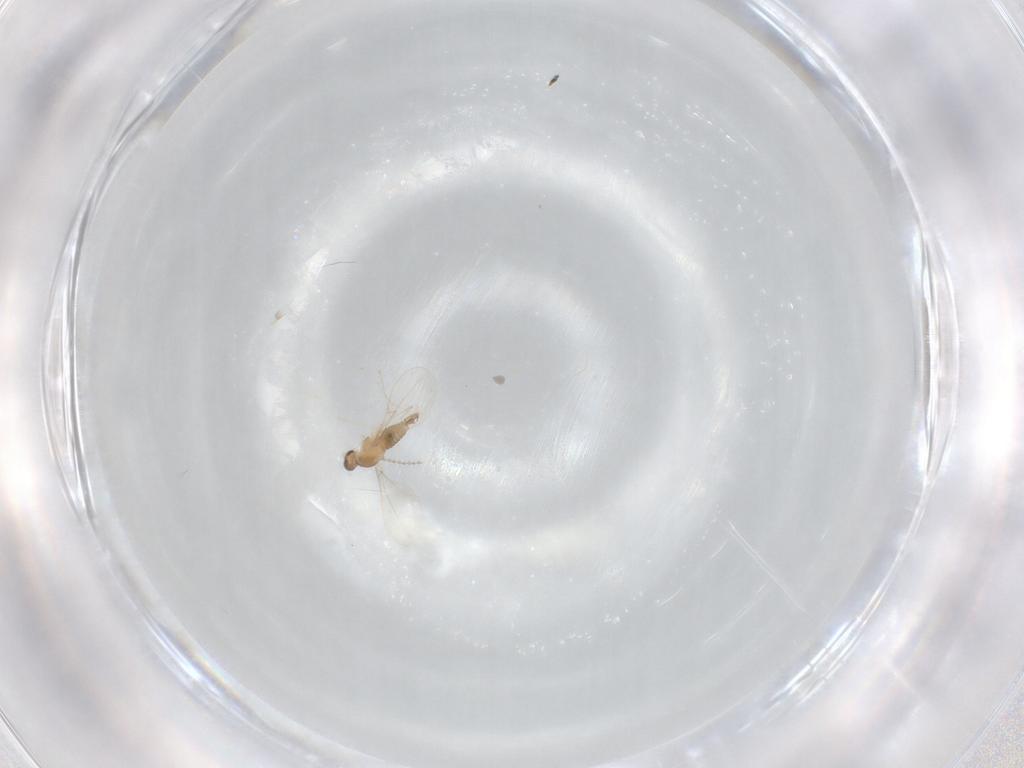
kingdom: Animalia
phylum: Arthropoda
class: Insecta
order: Diptera
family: Cecidomyiidae
